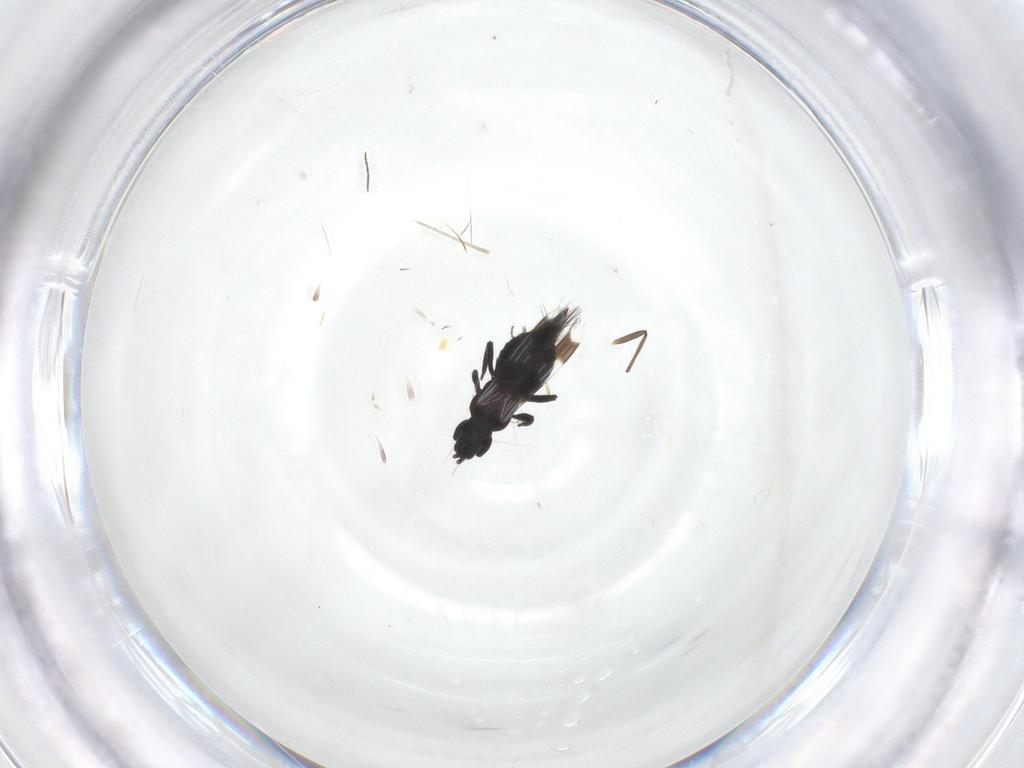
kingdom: Animalia
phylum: Arthropoda
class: Insecta
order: Thysanoptera
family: Aeolothripidae
